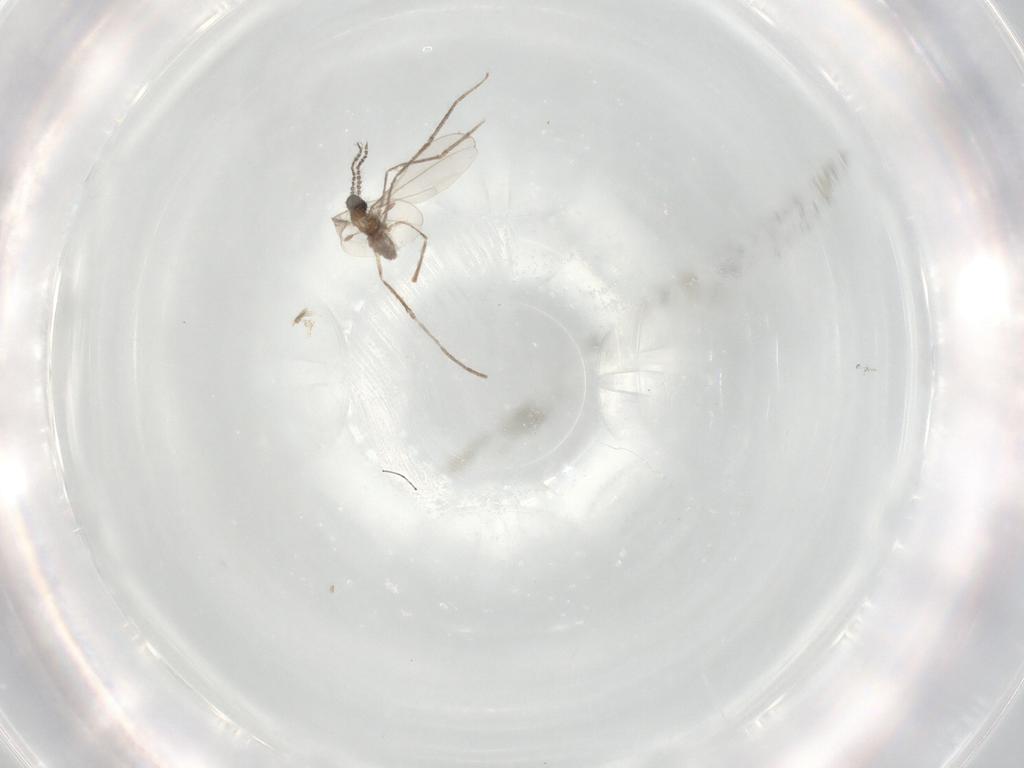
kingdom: Animalia
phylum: Arthropoda
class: Insecta
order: Diptera
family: Cecidomyiidae
